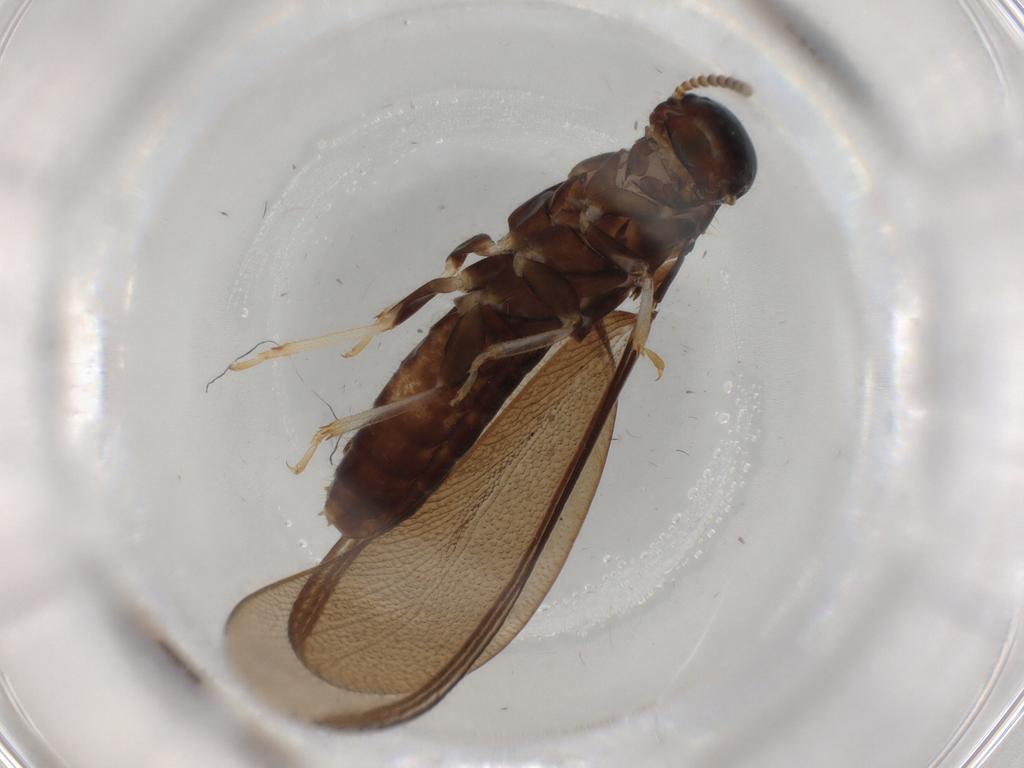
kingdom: Animalia
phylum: Arthropoda
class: Insecta
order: Blattodea
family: Kalotermitidae
